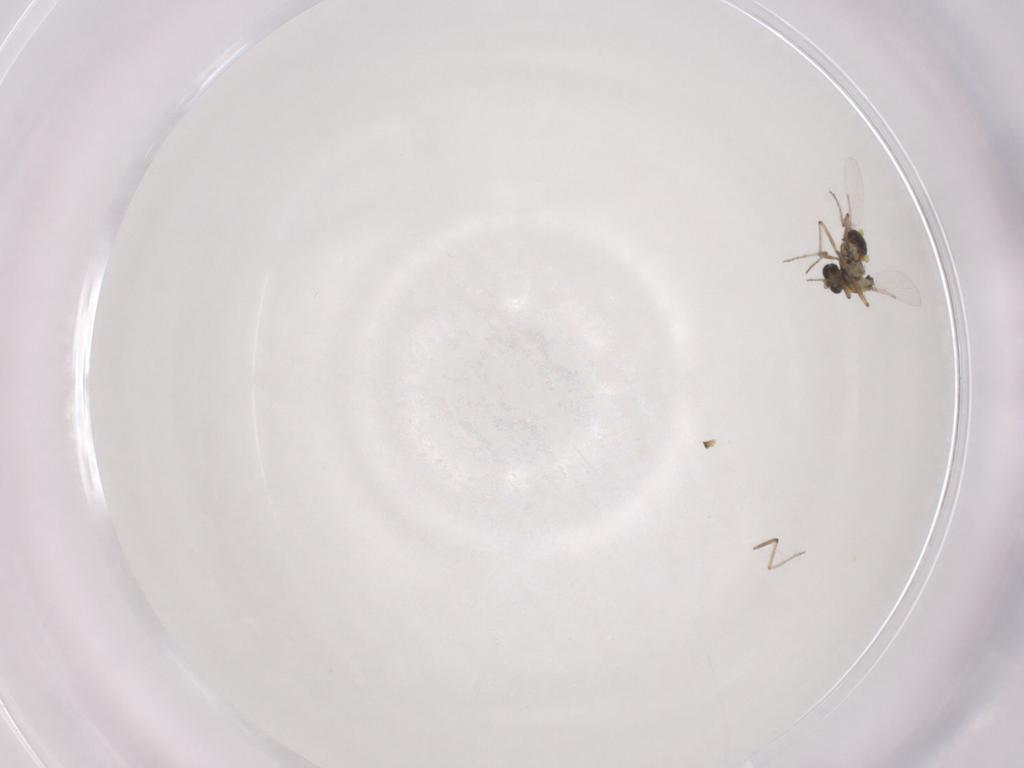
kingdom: Animalia
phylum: Arthropoda
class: Insecta
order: Diptera
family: Ceratopogonidae
